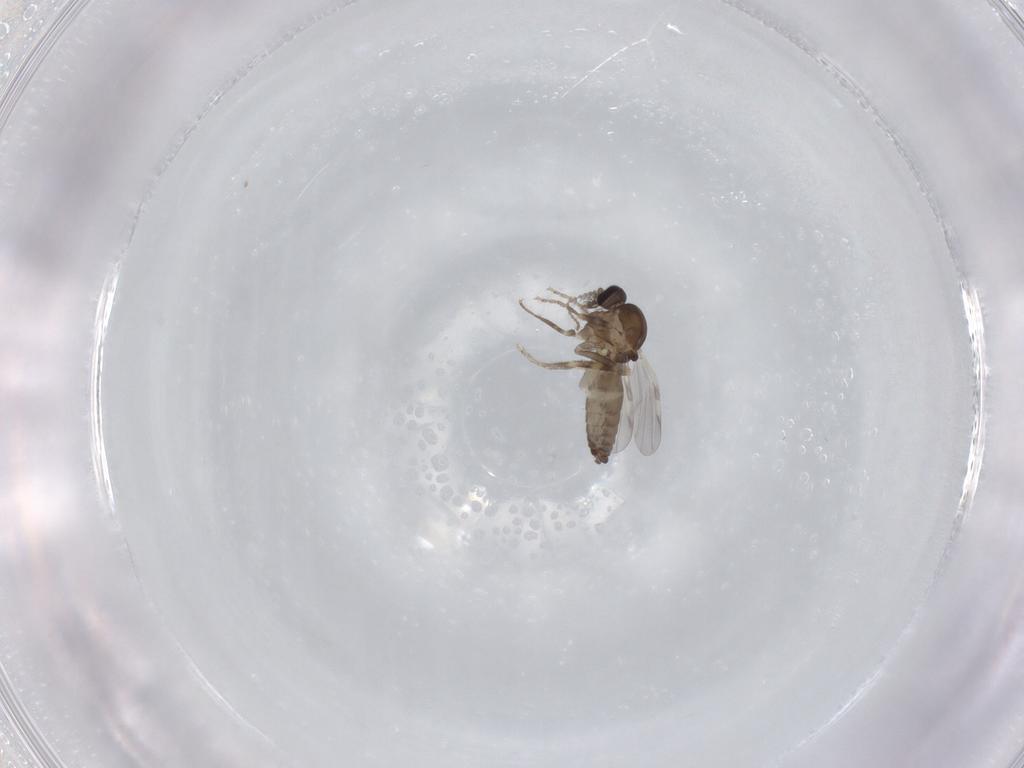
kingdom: Animalia
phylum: Arthropoda
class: Insecta
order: Diptera
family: Ceratopogonidae
